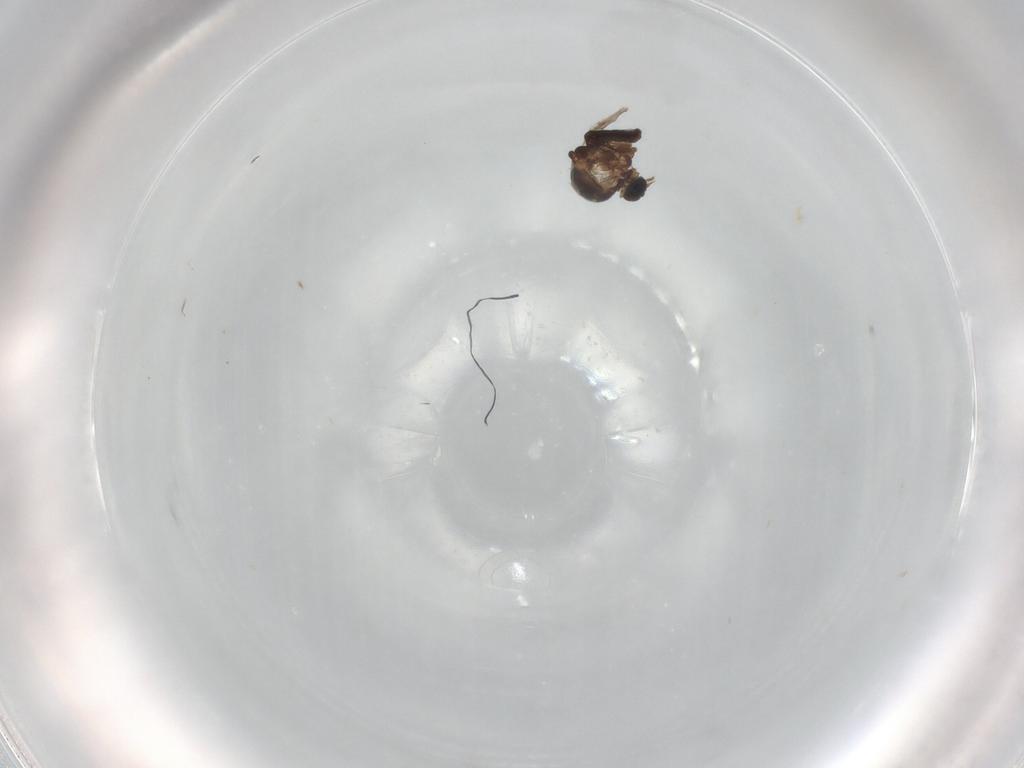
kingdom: Animalia
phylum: Arthropoda
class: Insecta
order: Diptera
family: Ceratopogonidae
